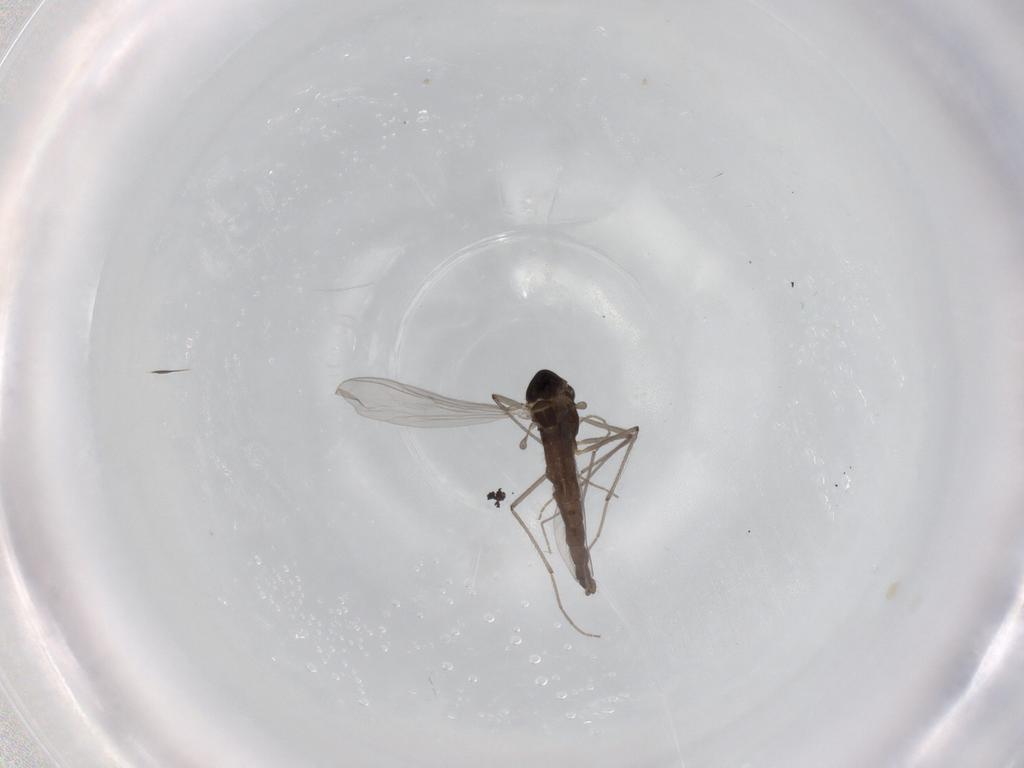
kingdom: Animalia
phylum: Arthropoda
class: Insecta
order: Diptera
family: Chironomidae
